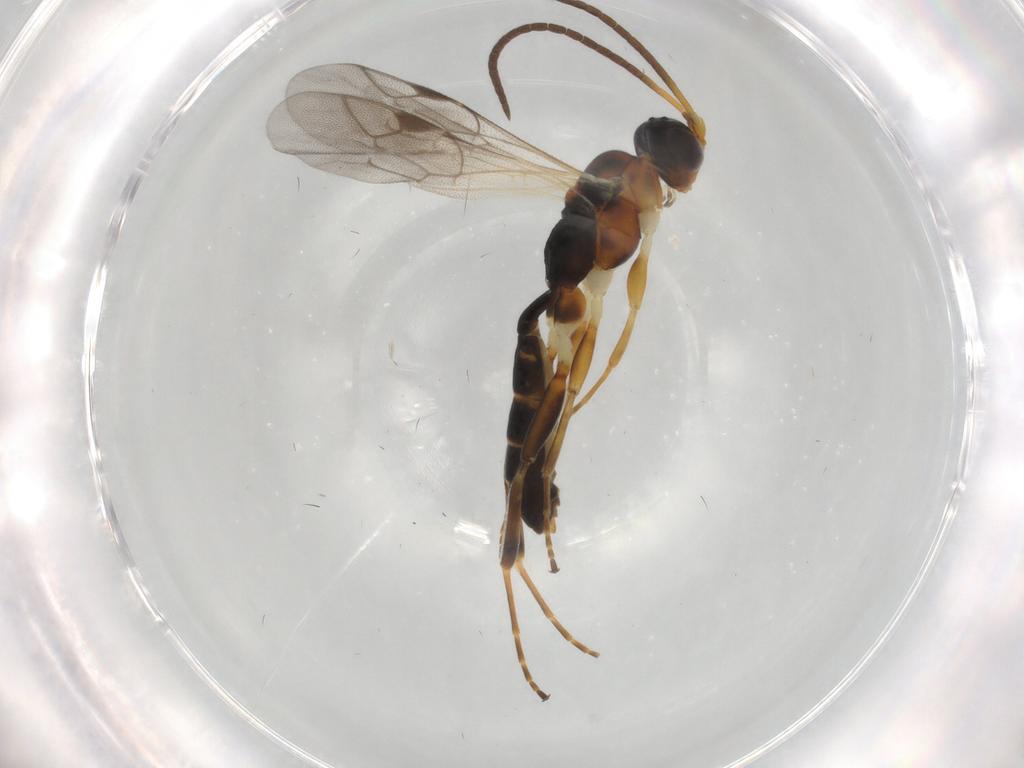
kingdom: Animalia
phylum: Arthropoda
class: Insecta
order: Hymenoptera
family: Ichneumonidae
